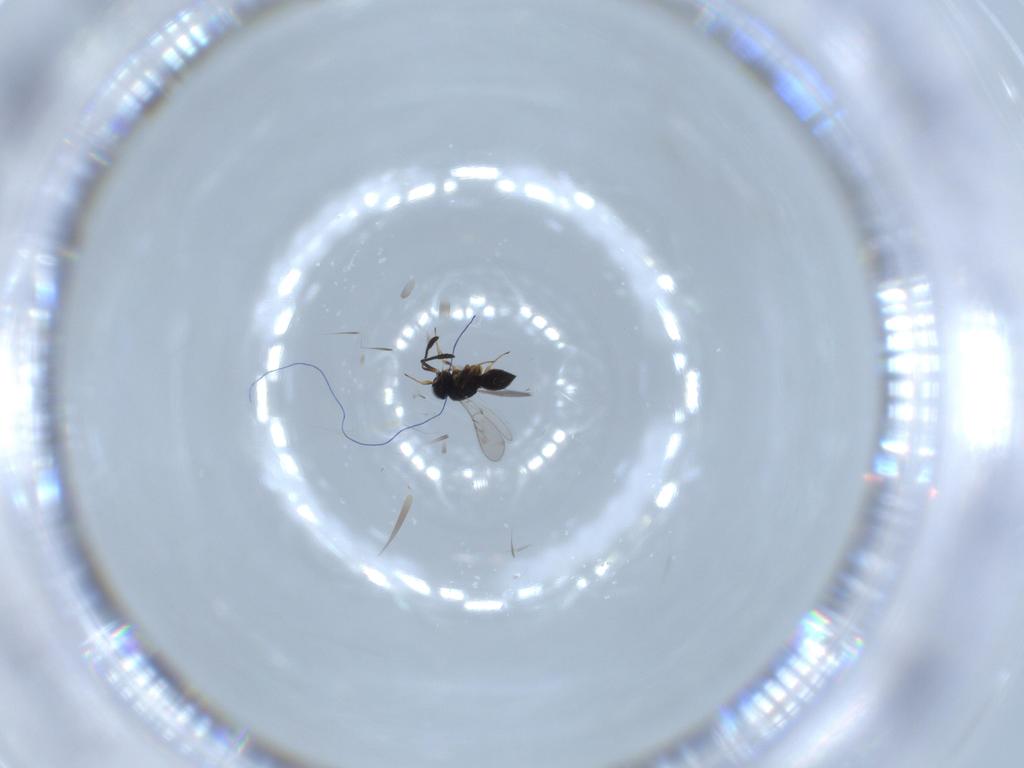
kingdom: Animalia
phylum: Arthropoda
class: Insecta
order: Hymenoptera
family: Scelionidae
